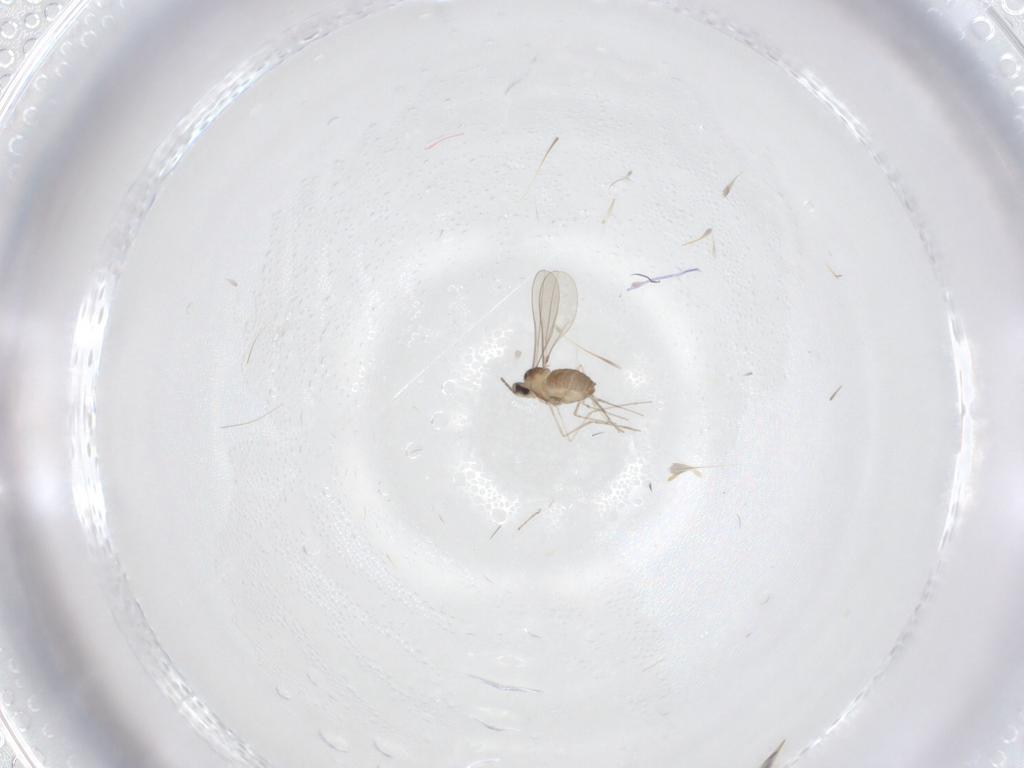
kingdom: Animalia
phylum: Arthropoda
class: Insecta
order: Diptera
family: Cecidomyiidae
